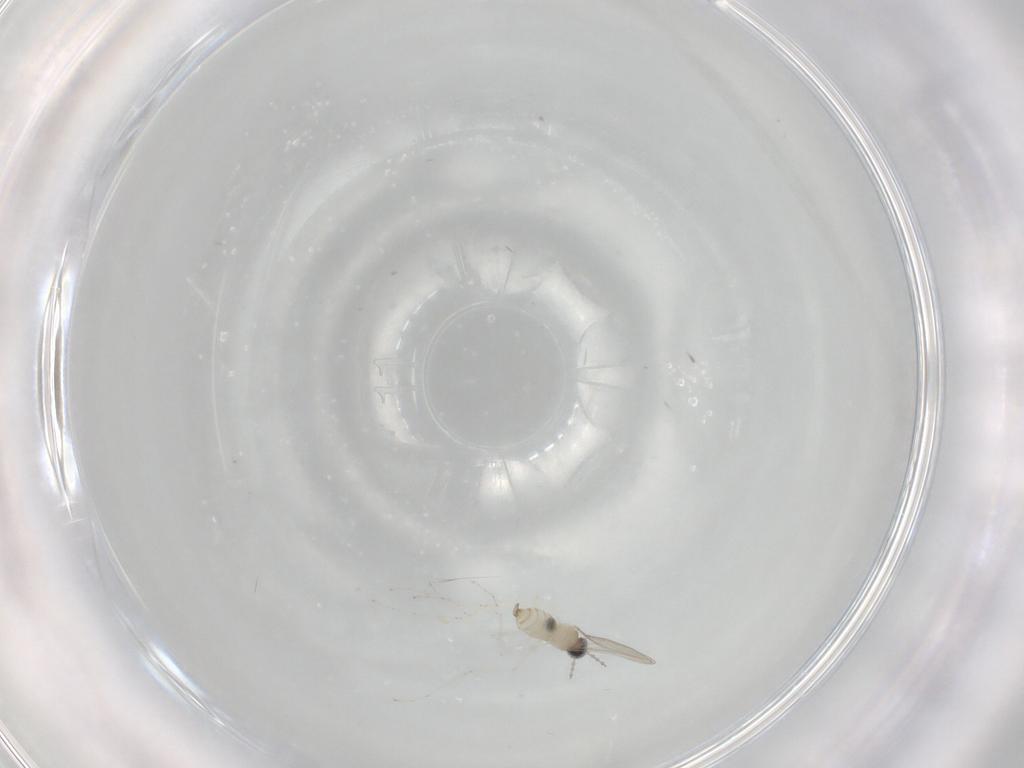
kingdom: Animalia
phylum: Arthropoda
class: Insecta
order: Diptera
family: Cecidomyiidae
